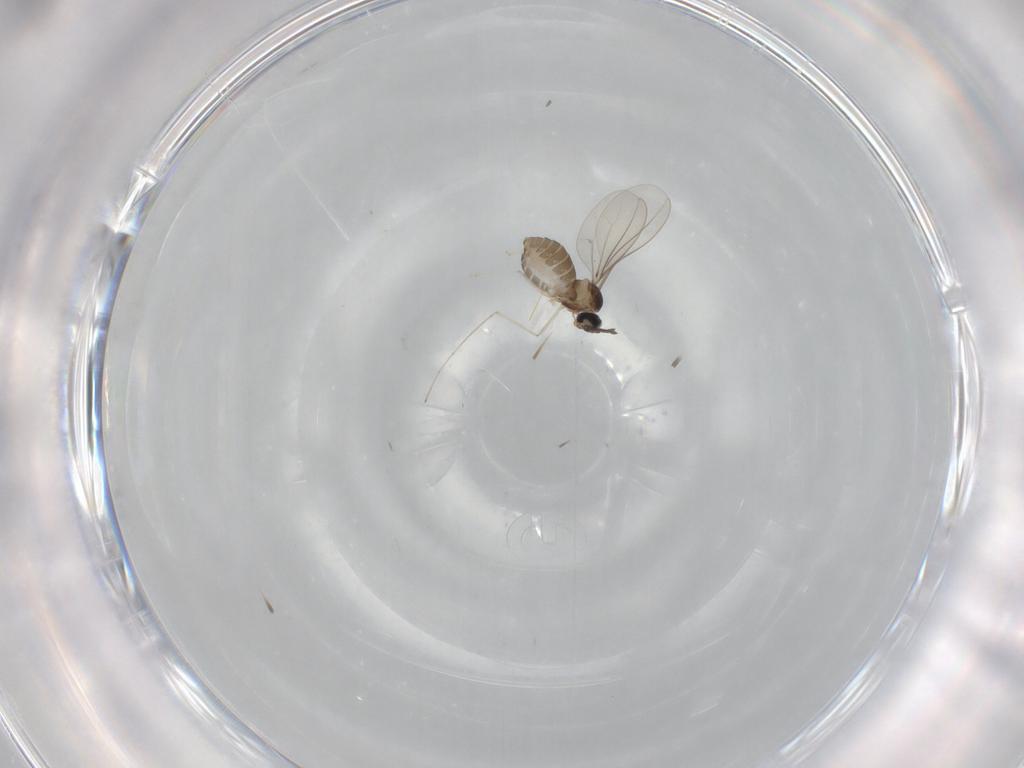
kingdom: Animalia
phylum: Arthropoda
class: Insecta
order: Diptera
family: Cecidomyiidae
